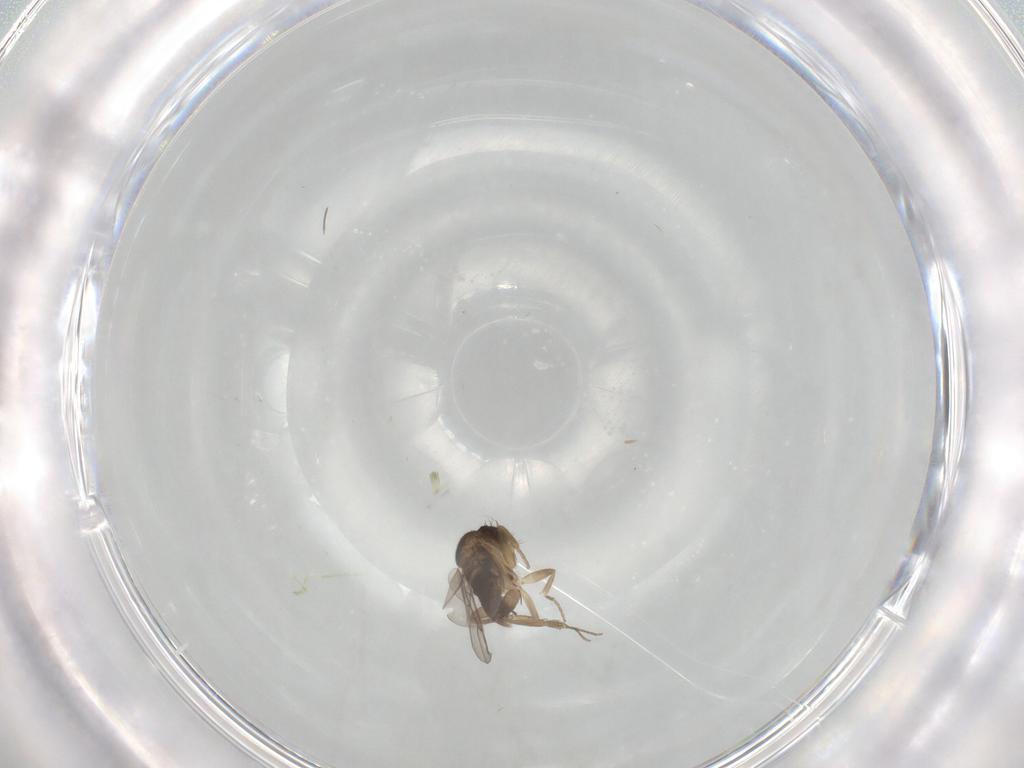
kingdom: Animalia
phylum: Arthropoda
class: Insecta
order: Diptera
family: Phoridae
